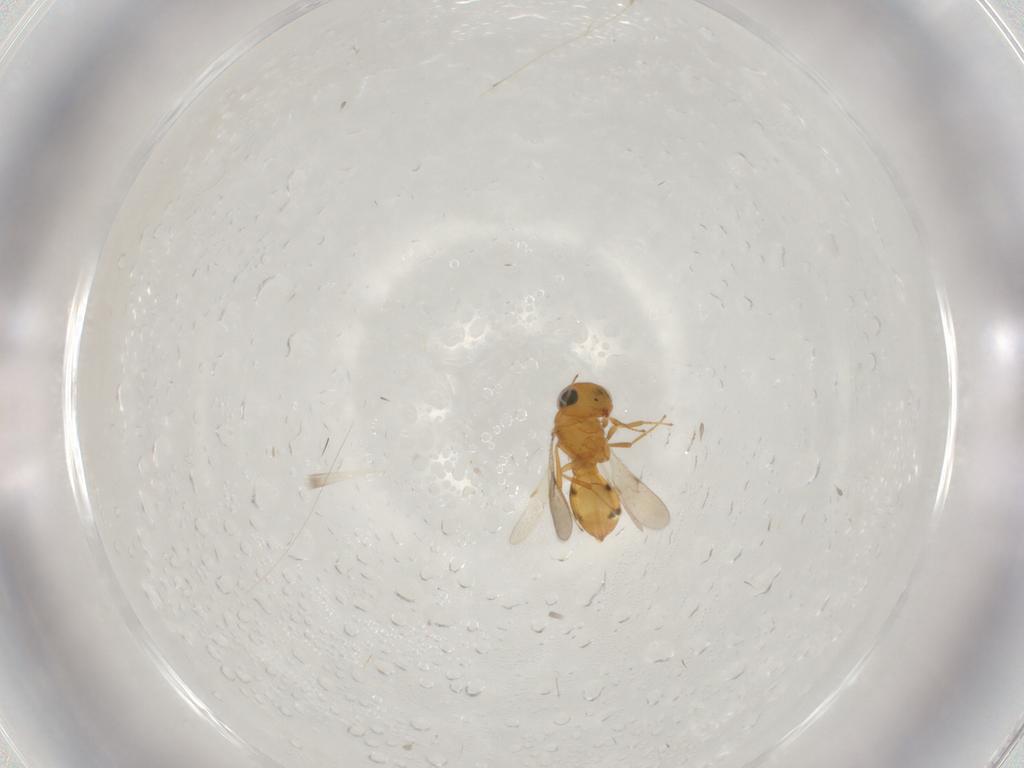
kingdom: Animalia
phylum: Arthropoda
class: Insecta
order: Hymenoptera
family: Scelionidae
